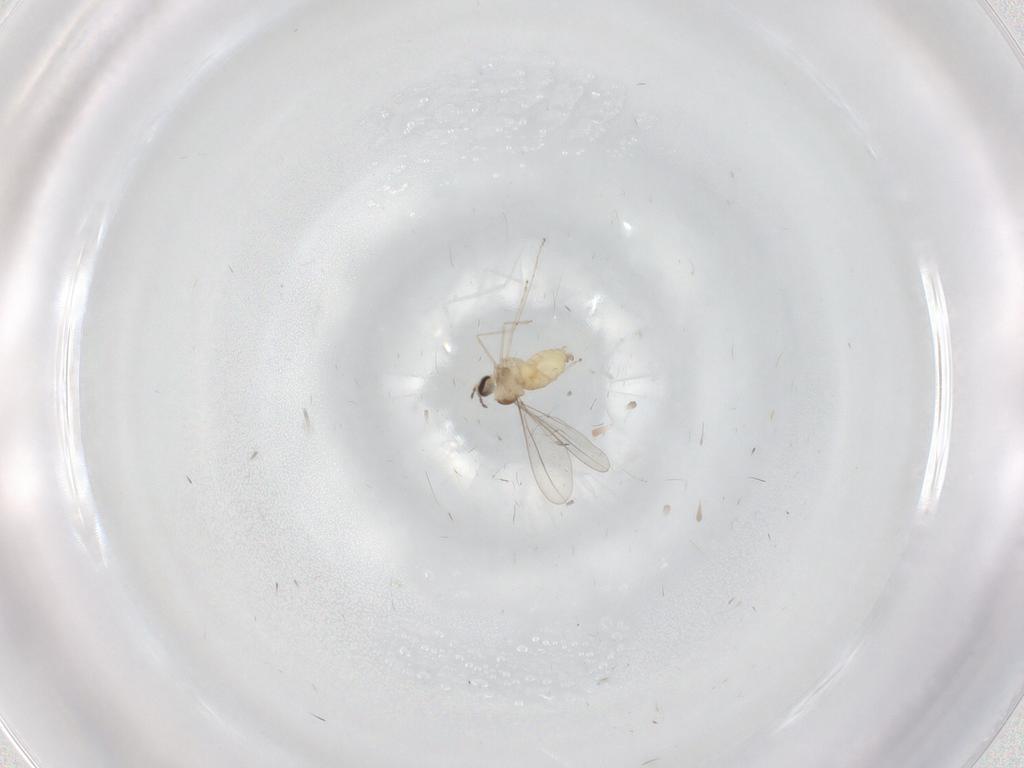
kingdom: Animalia
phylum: Arthropoda
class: Insecta
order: Diptera
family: Cecidomyiidae
